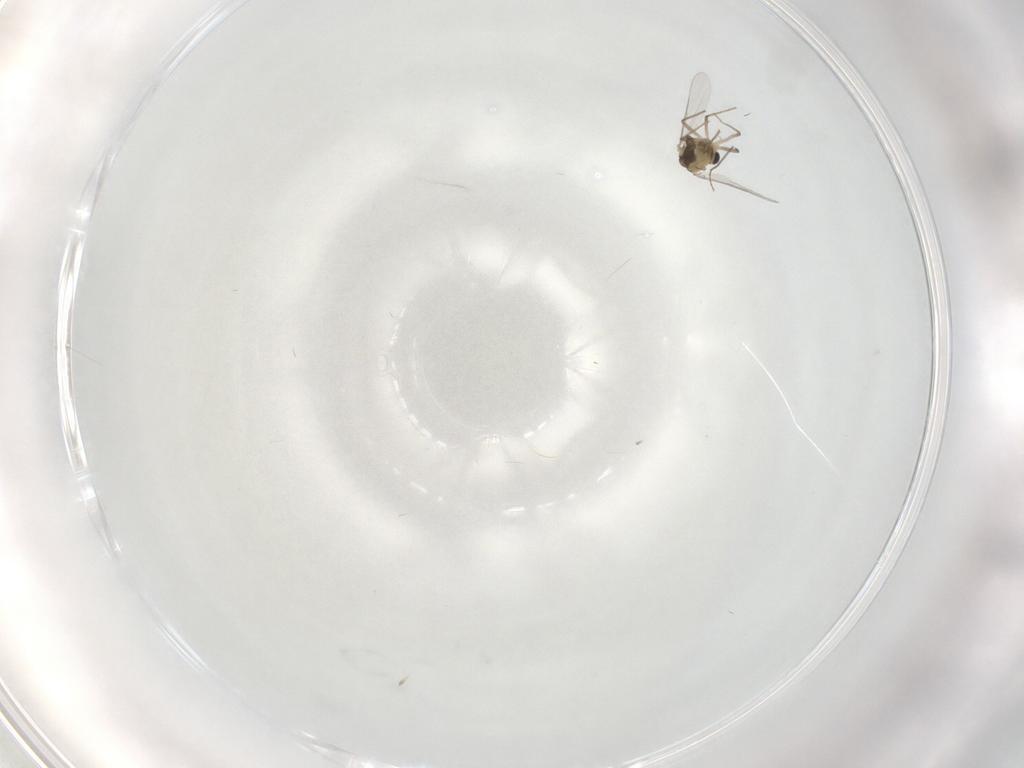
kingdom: Animalia
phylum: Arthropoda
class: Insecta
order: Diptera
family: Chironomidae
